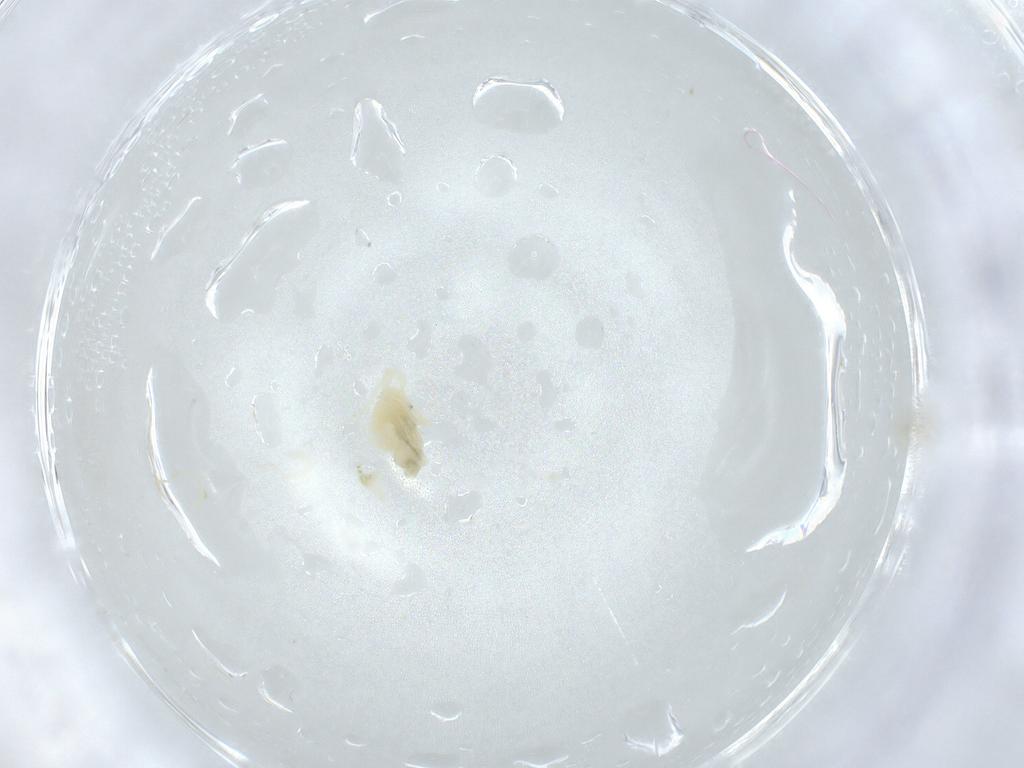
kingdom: Animalia
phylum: Arthropoda
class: Arachnida
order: Trombidiformes
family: Anystidae
